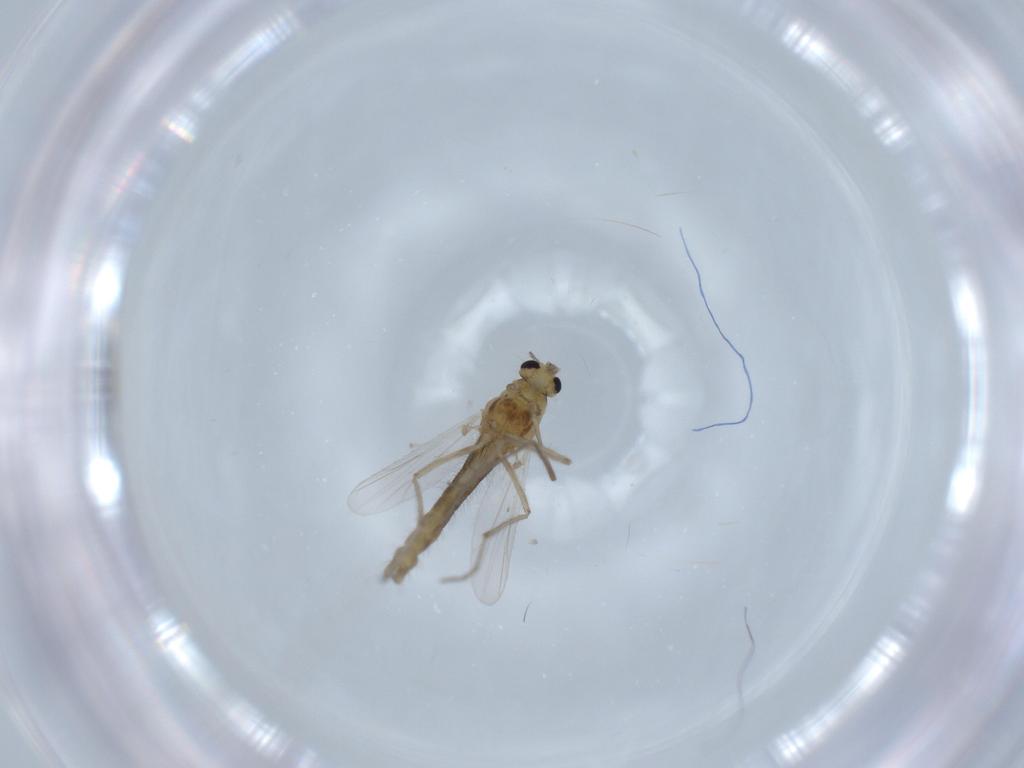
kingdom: Animalia
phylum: Arthropoda
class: Insecta
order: Diptera
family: Chironomidae
